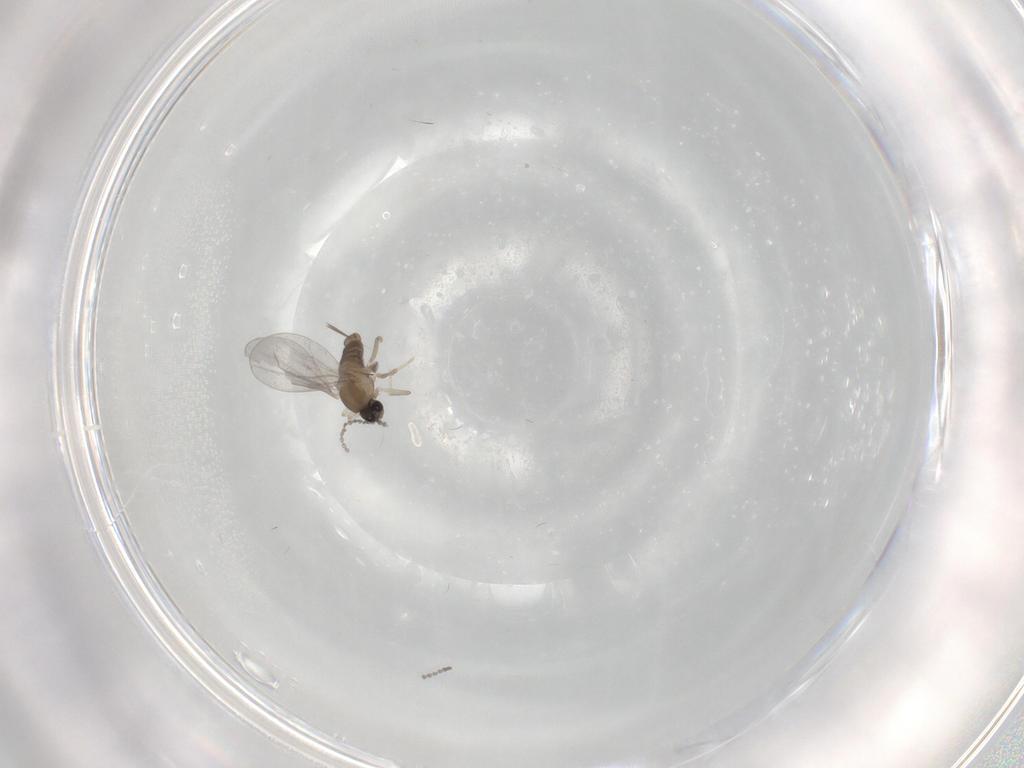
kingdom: Animalia
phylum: Arthropoda
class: Insecta
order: Diptera
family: Cecidomyiidae
